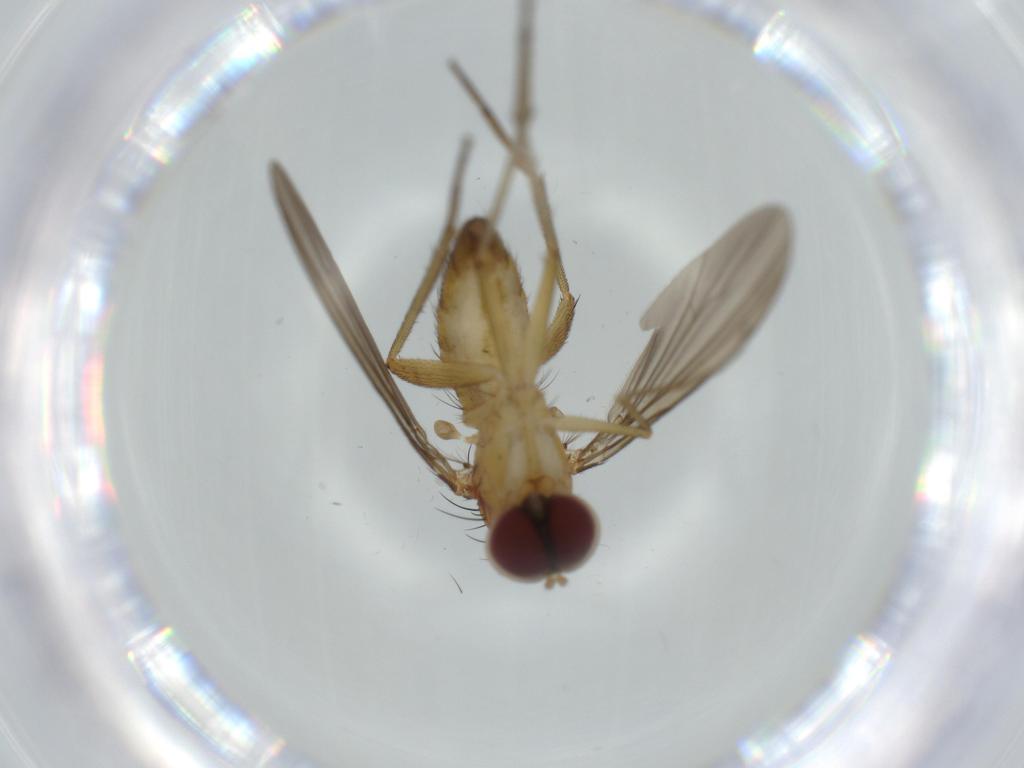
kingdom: Animalia
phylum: Arthropoda
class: Insecta
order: Diptera
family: Dolichopodidae
